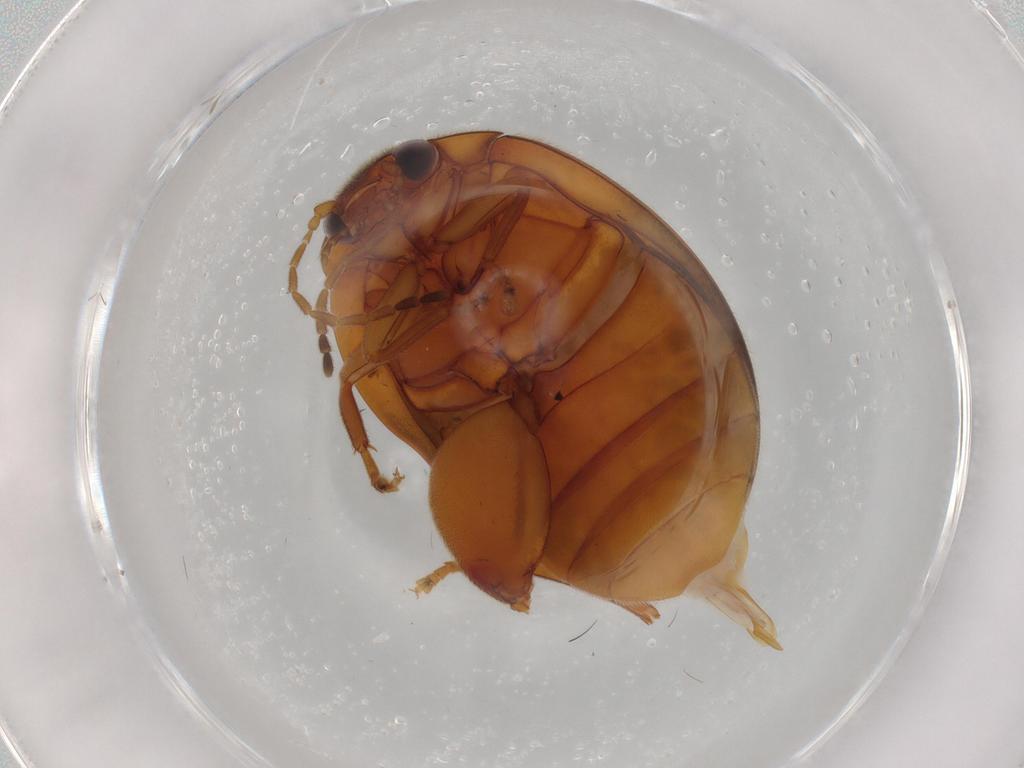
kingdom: Animalia
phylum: Arthropoda
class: Insecta
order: Coleoptera
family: Scirtidae
